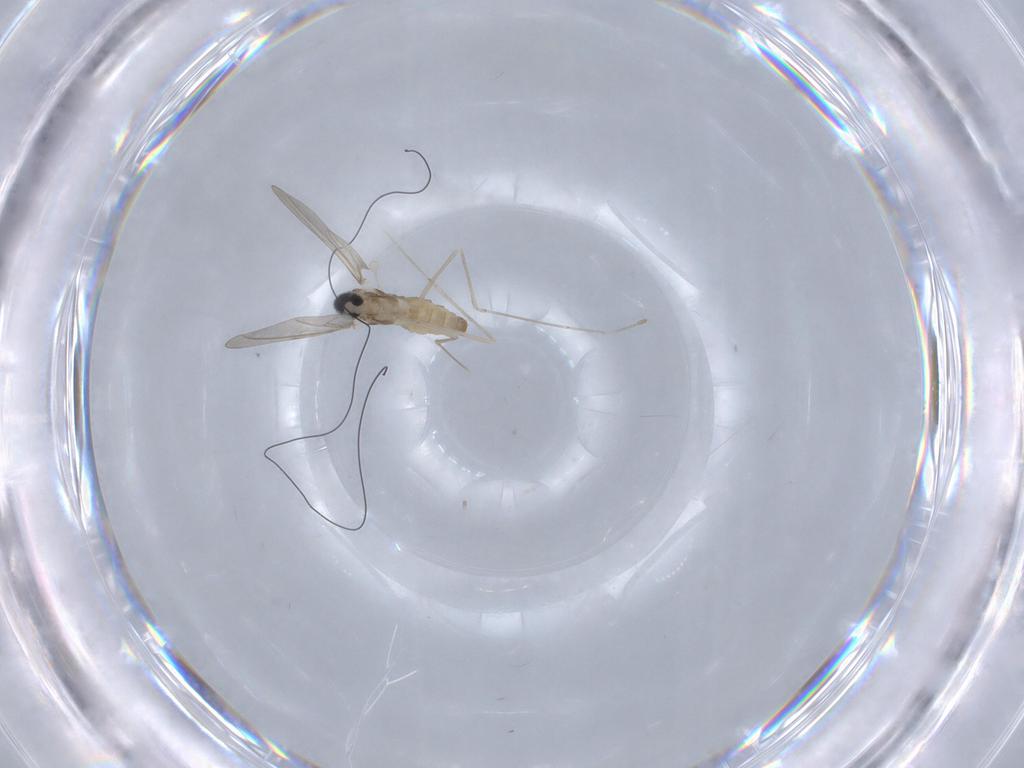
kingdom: Animalia
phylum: Arthropoda
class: Insecta
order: Diptera
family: Cecidomyiidae
